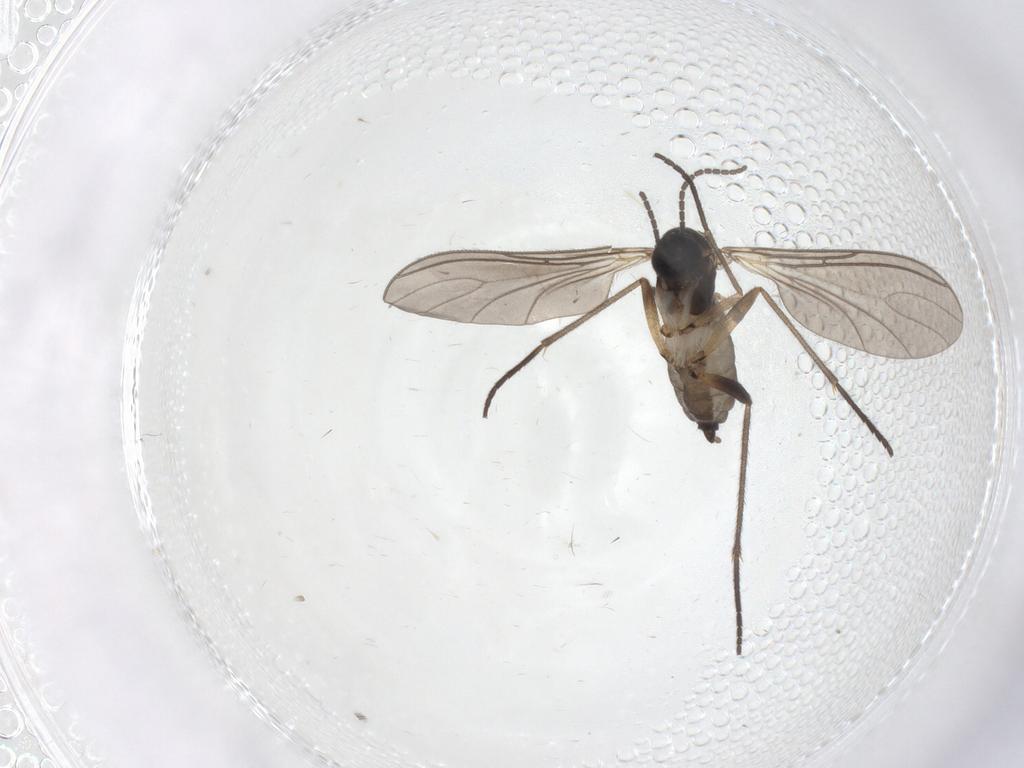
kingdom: Animalia
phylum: Arthropoda
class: Insecta
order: Diptera
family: Sciaridae
